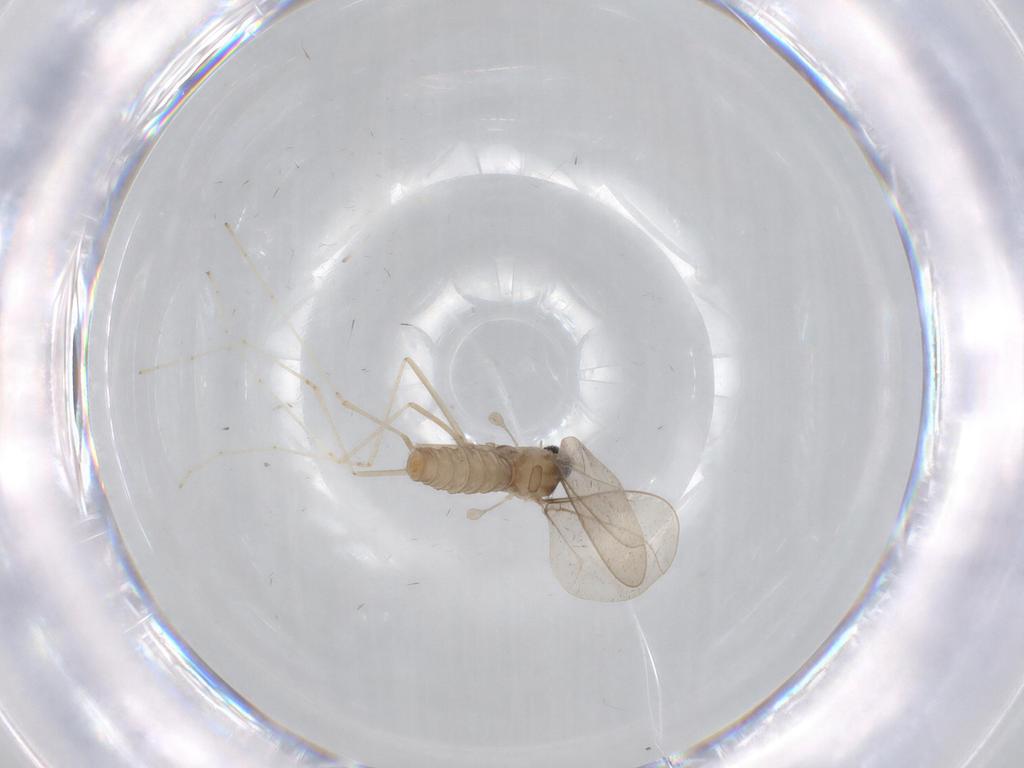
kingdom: Animalia
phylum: Arthropoda
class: Insecta
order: Diptera
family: Cecidomyiidae
